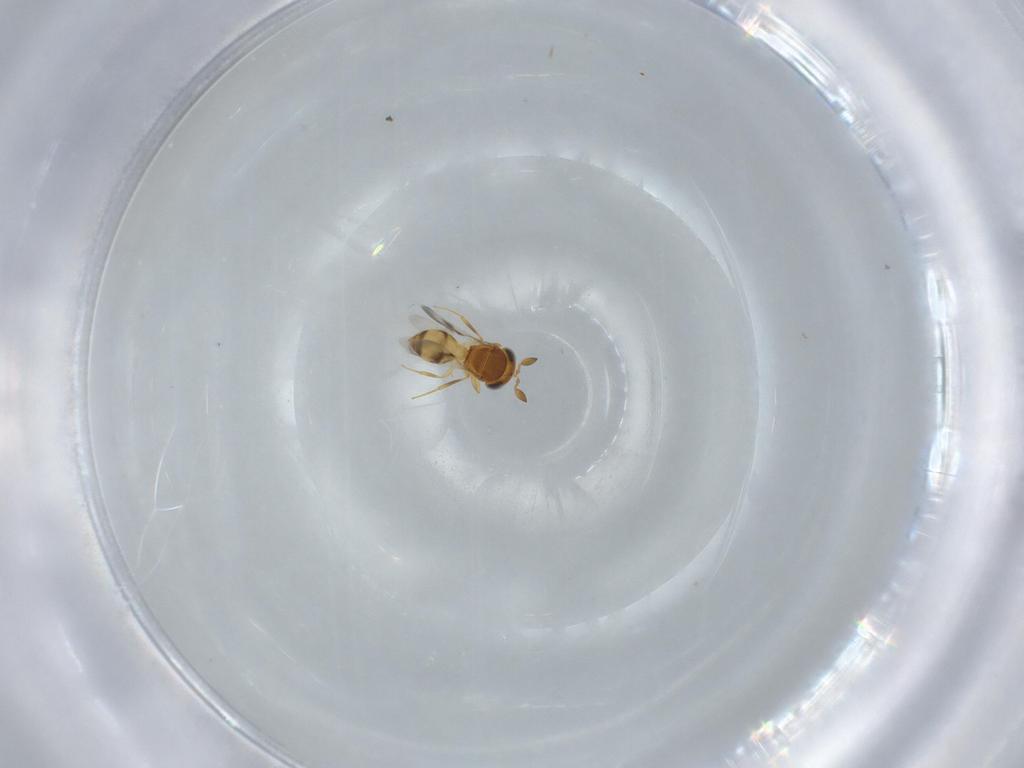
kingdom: Animalia
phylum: Arthropoda
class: Insecta
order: Hymenoptera
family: Scelionidae
